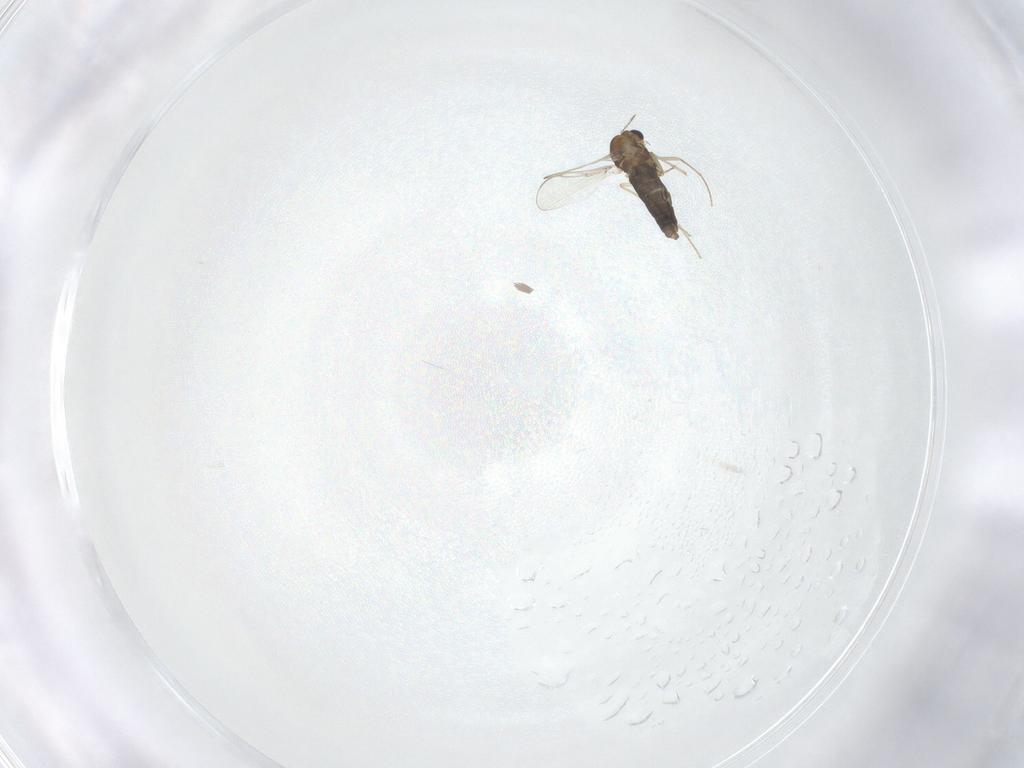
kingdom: Animalia
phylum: Arthropoda
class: Insecta
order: Diptera
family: Chironomidae
